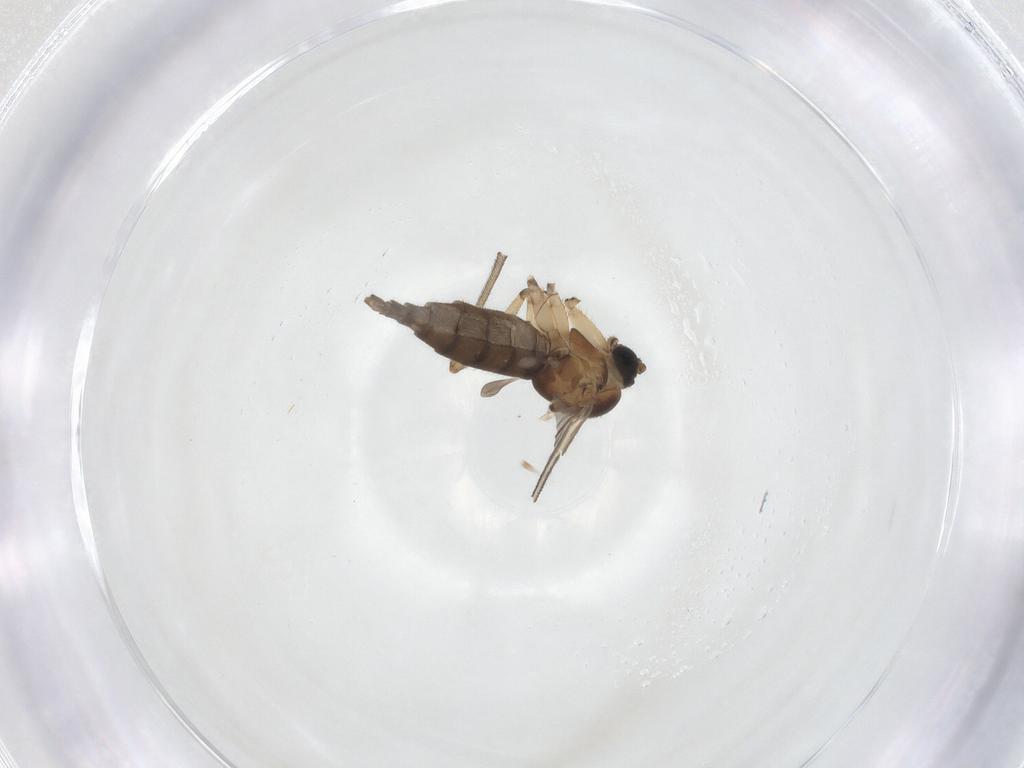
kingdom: Animalia
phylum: Arthropoda
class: Insecta
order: Diptera
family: Sciaridae
